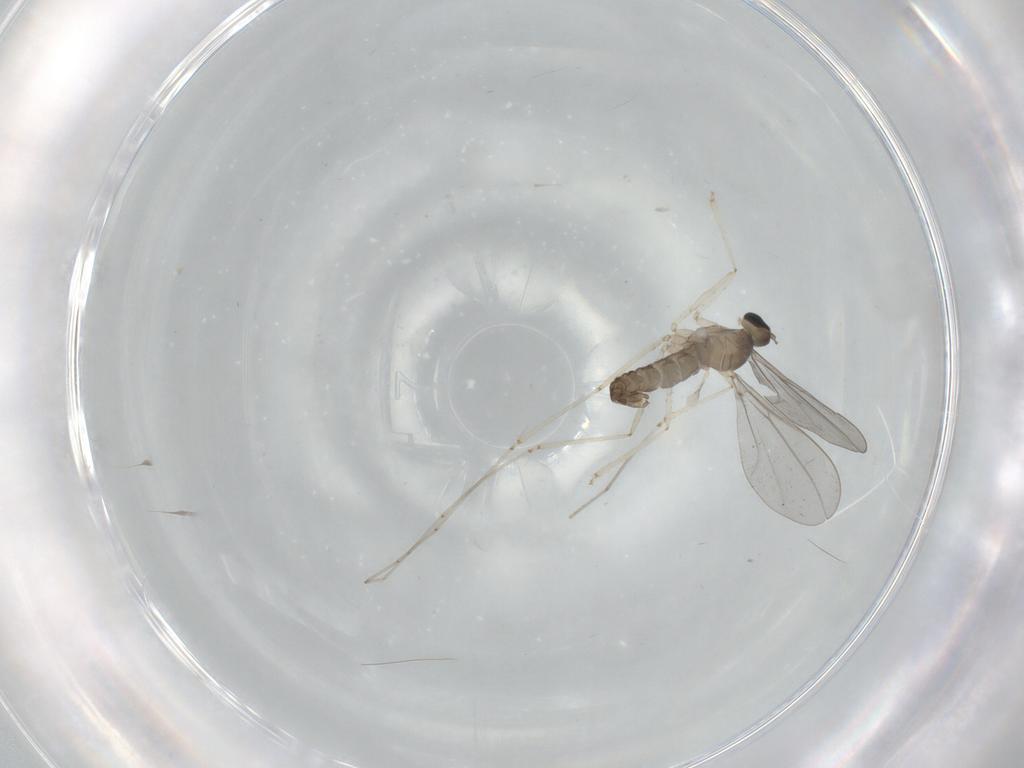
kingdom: Animalia
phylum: Arthropoda
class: Insecta
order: Diptera
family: Cecidomyiidae
